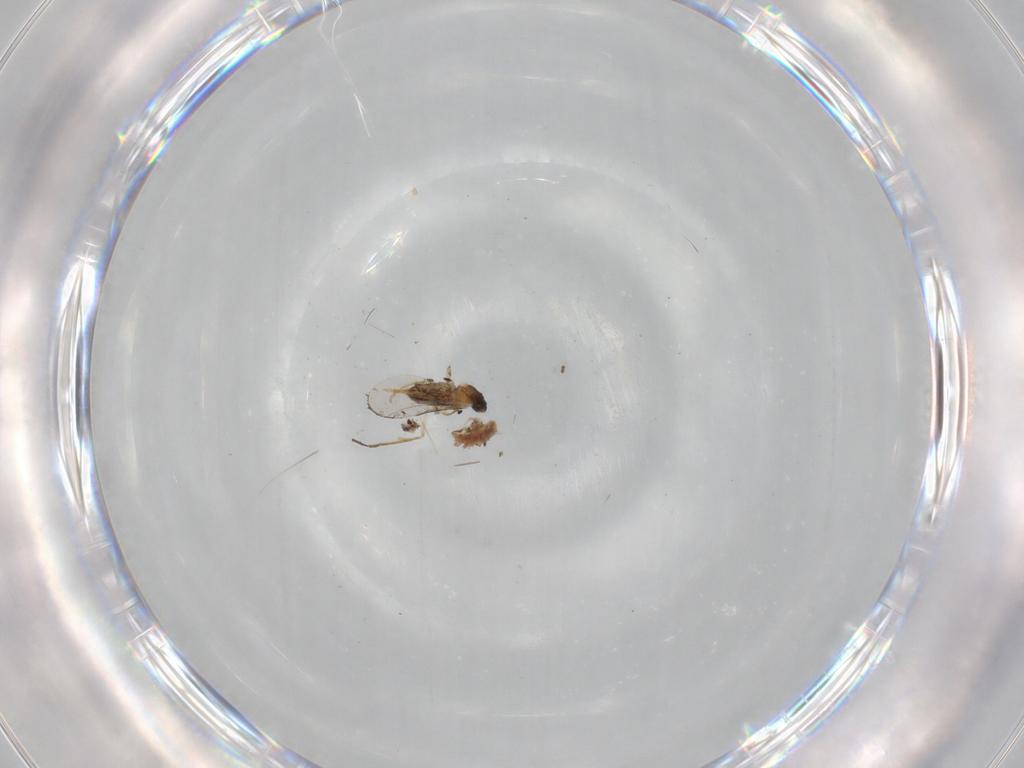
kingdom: Animalia
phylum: Arthropoda
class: Insecta
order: Diptera
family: Cecidomyiidae
